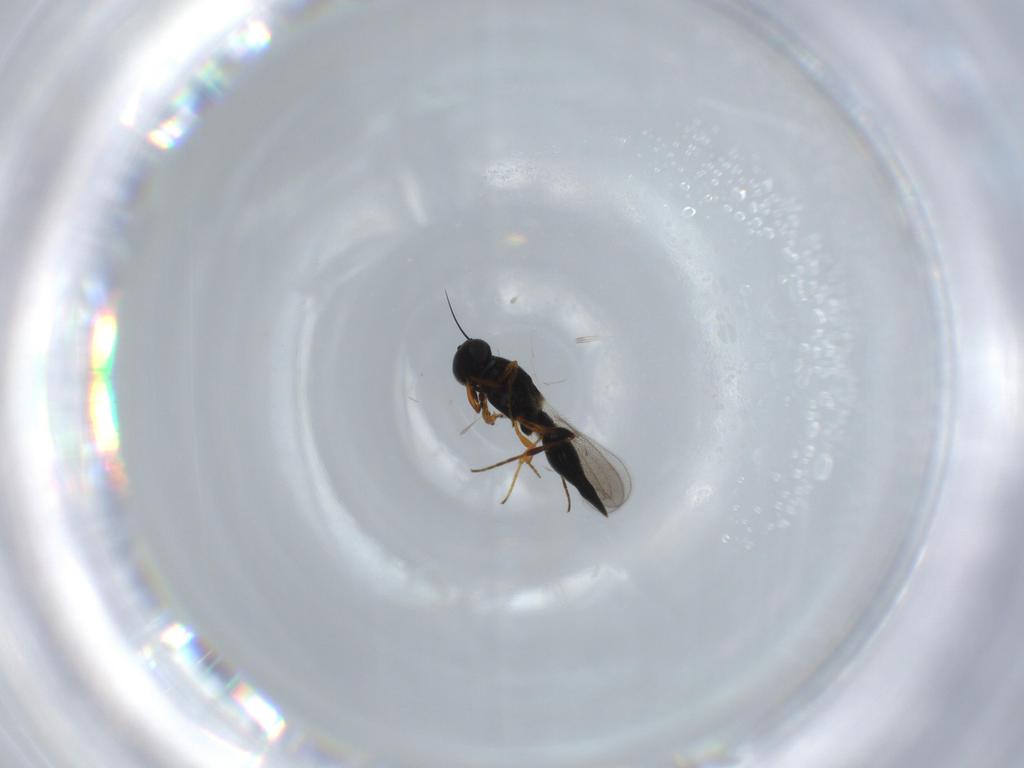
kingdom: Animalia
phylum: Arthropoda
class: Insecta
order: Hymenoptera
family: Platygastridae
